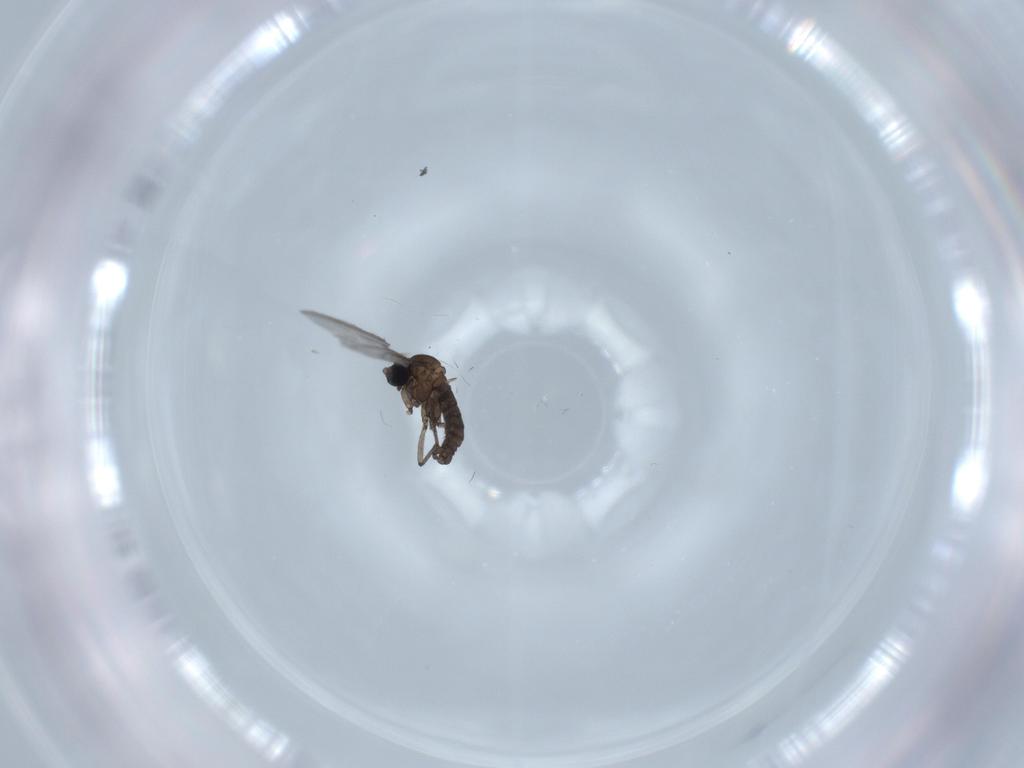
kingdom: Animalia
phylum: Arthropoda
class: Insecta
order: Diptera
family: Sciaridae
